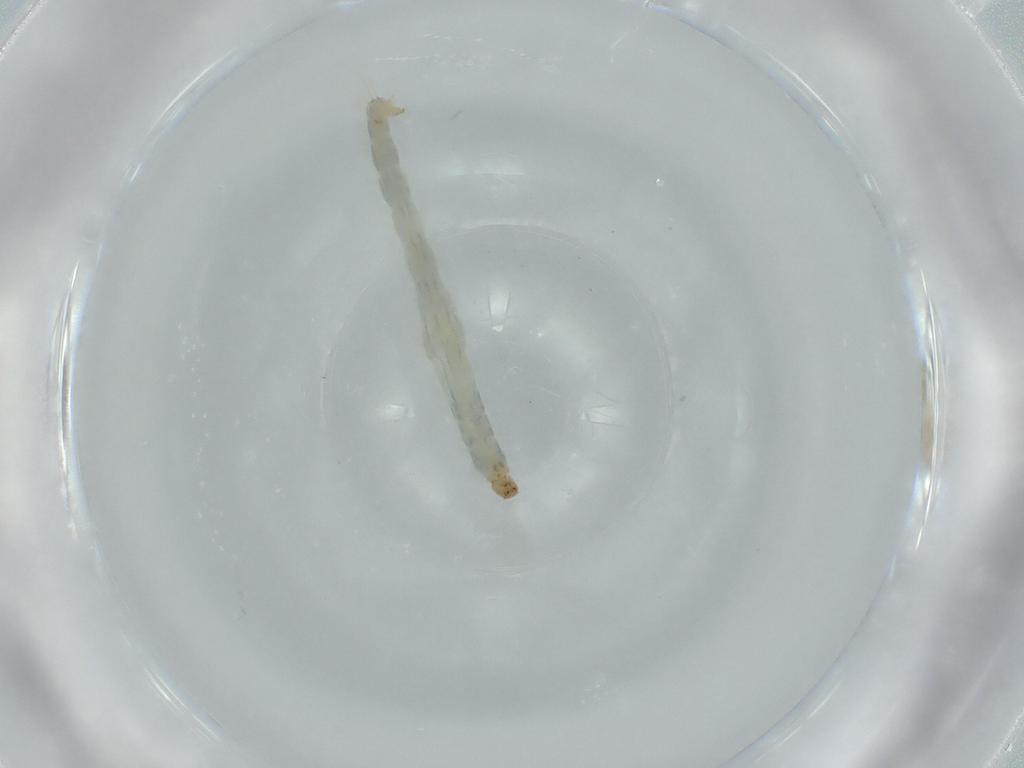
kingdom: Animalia
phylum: Arthropoda
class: Insecta
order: Diptera
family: Chironomidae
